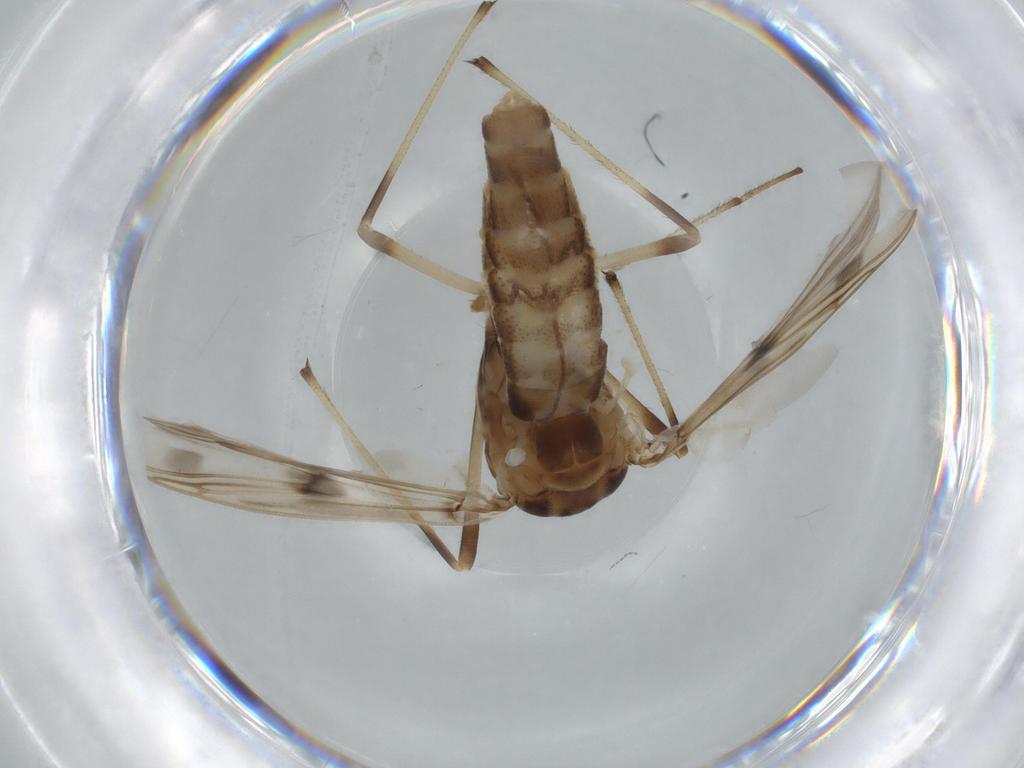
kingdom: Animalia
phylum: Arthropoda
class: Insecta
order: Diptera
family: Chironomidae
